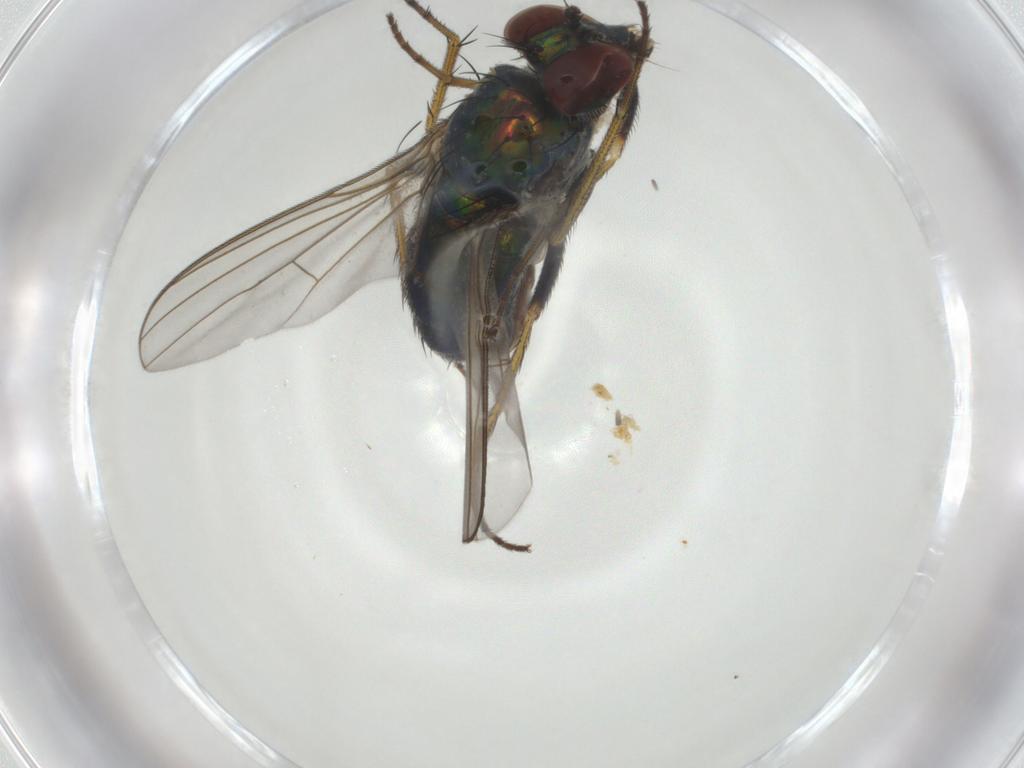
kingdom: Animalia
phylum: Arthropoda
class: Insecta
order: Diptera
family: Dolichopodidae
